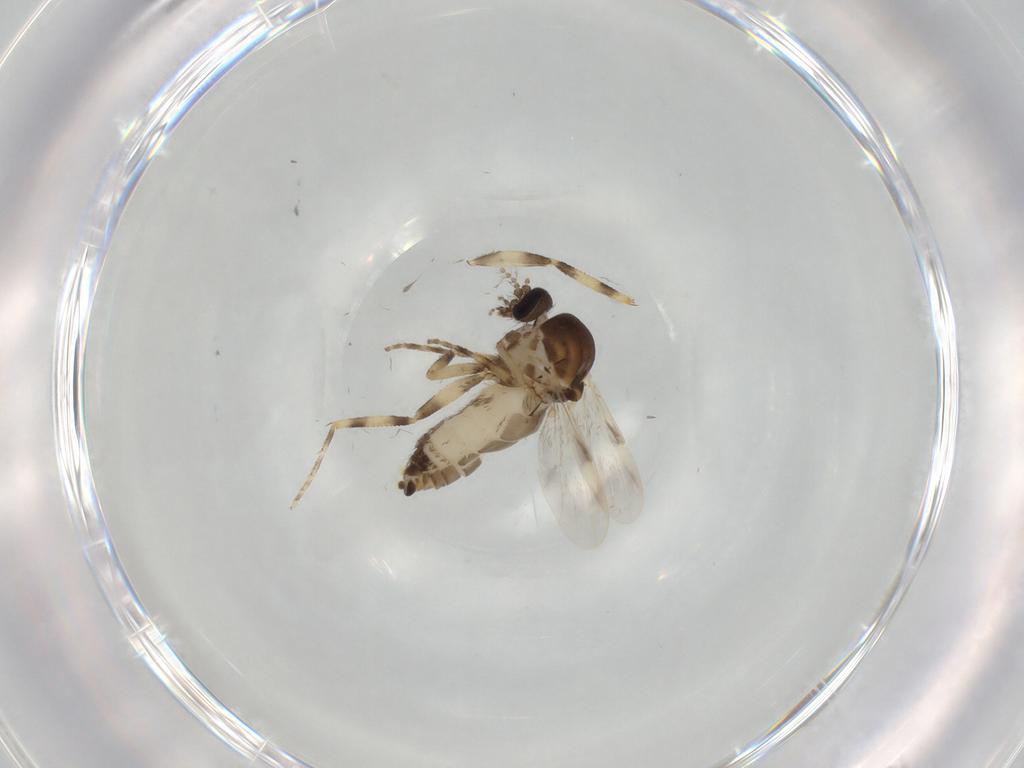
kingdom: Animalia
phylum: Arthropoda
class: Insecta
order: Diptera
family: Ceratopogonidae
